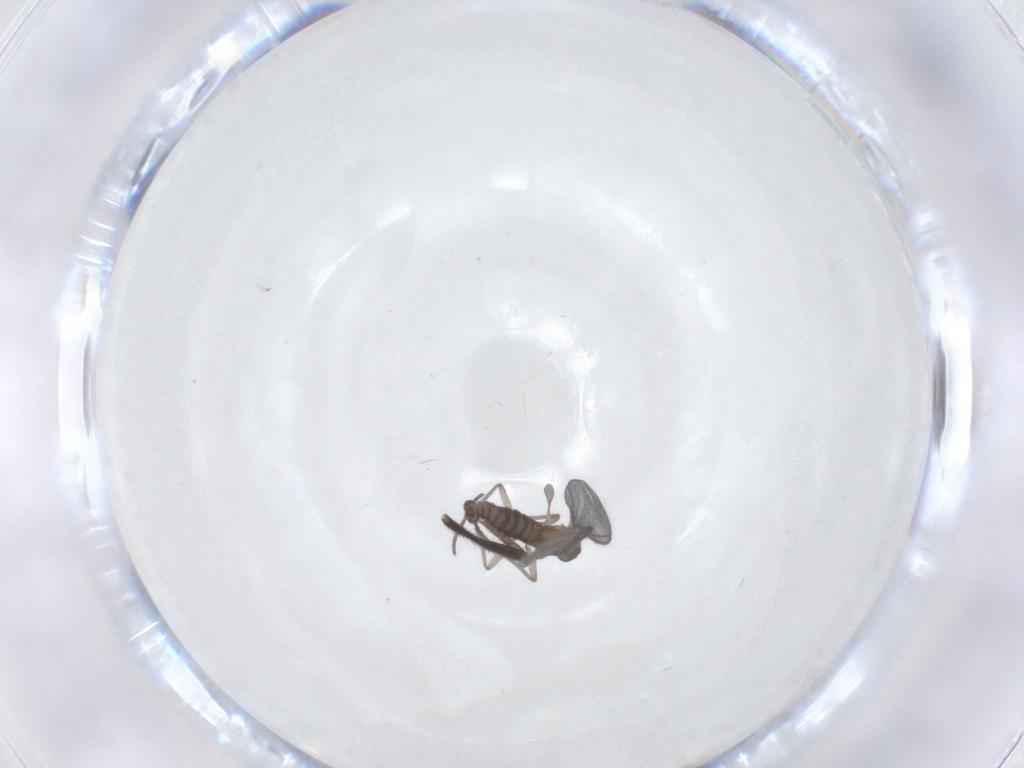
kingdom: Animalia
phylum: Arthropoda
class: Insecta
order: Diptera
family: Sciaridae
